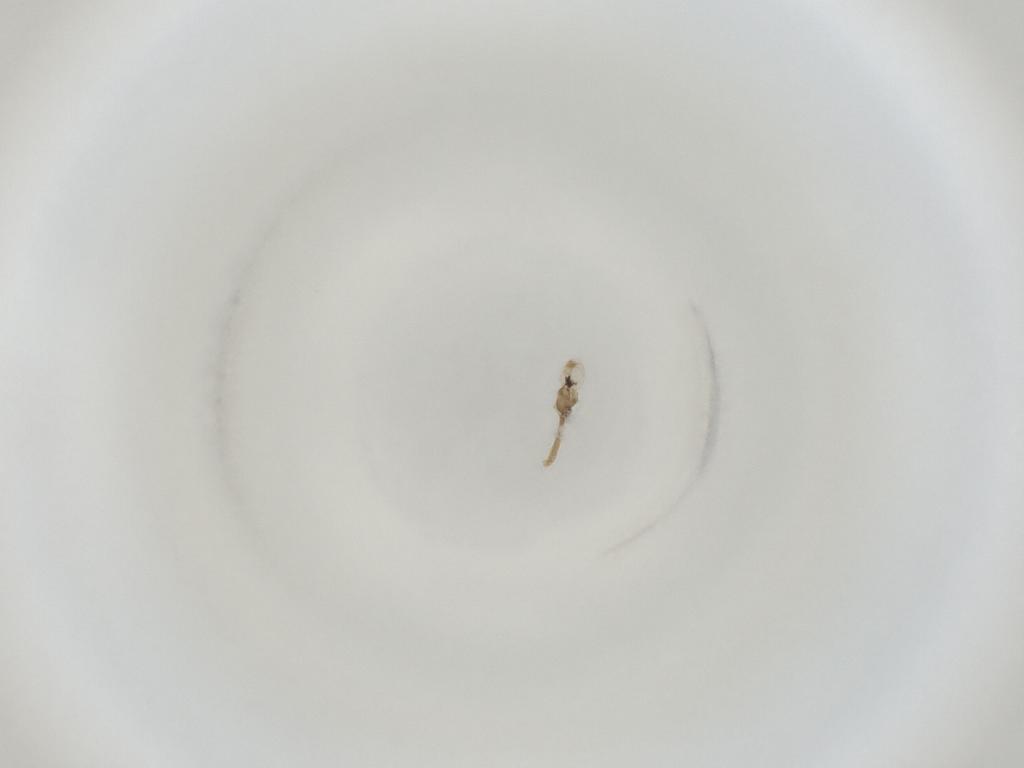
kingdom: Animalia
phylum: Arthropoda
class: Insecta
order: Diptera
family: Cecidomyiidae
